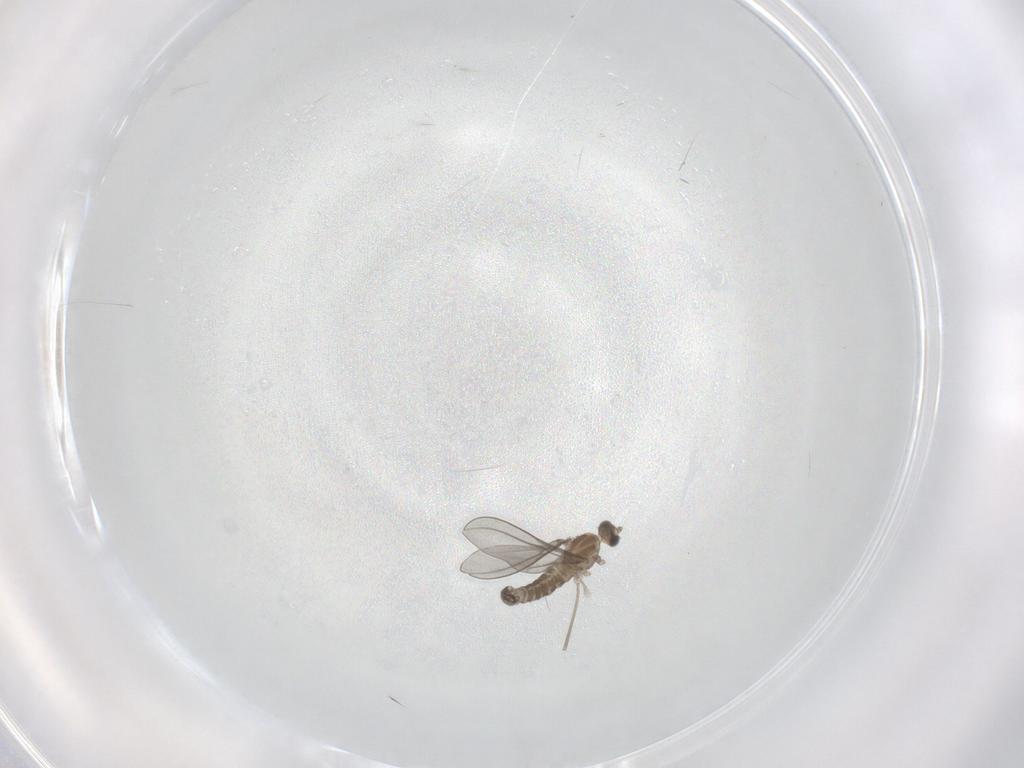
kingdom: Animalia
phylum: Arthropoda
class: Insecta
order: Diptera
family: Cecidomyiidae
